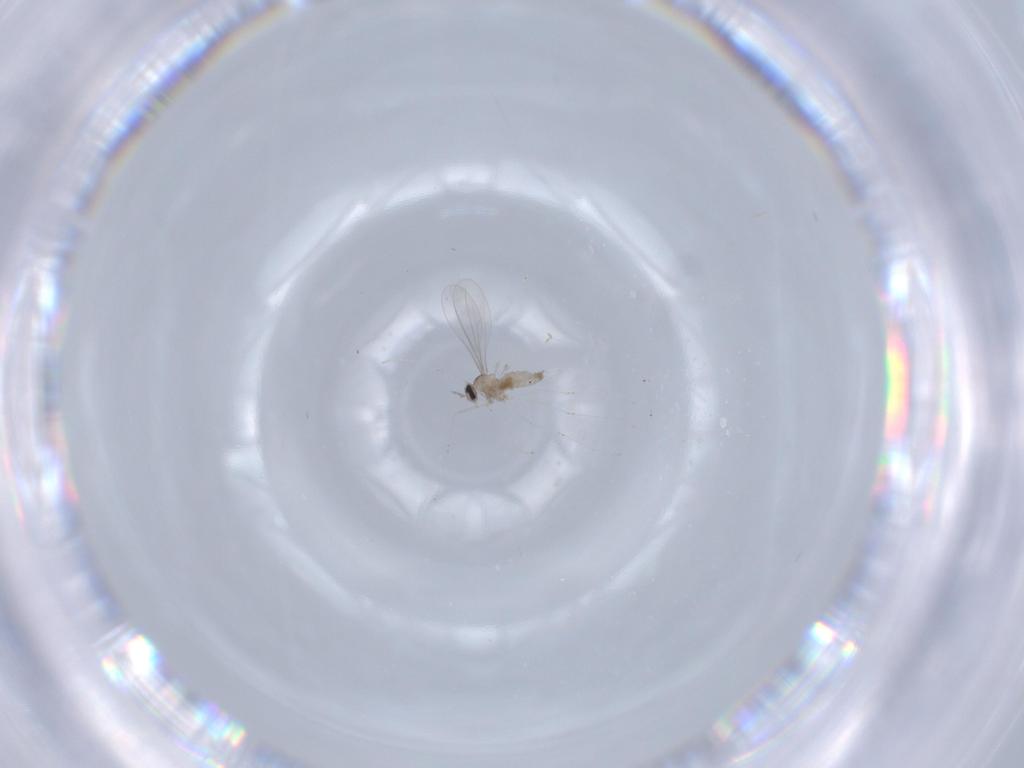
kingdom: Animalia
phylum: Arthropoda
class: Insecta
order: Diptera
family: Cecidomyiidae
